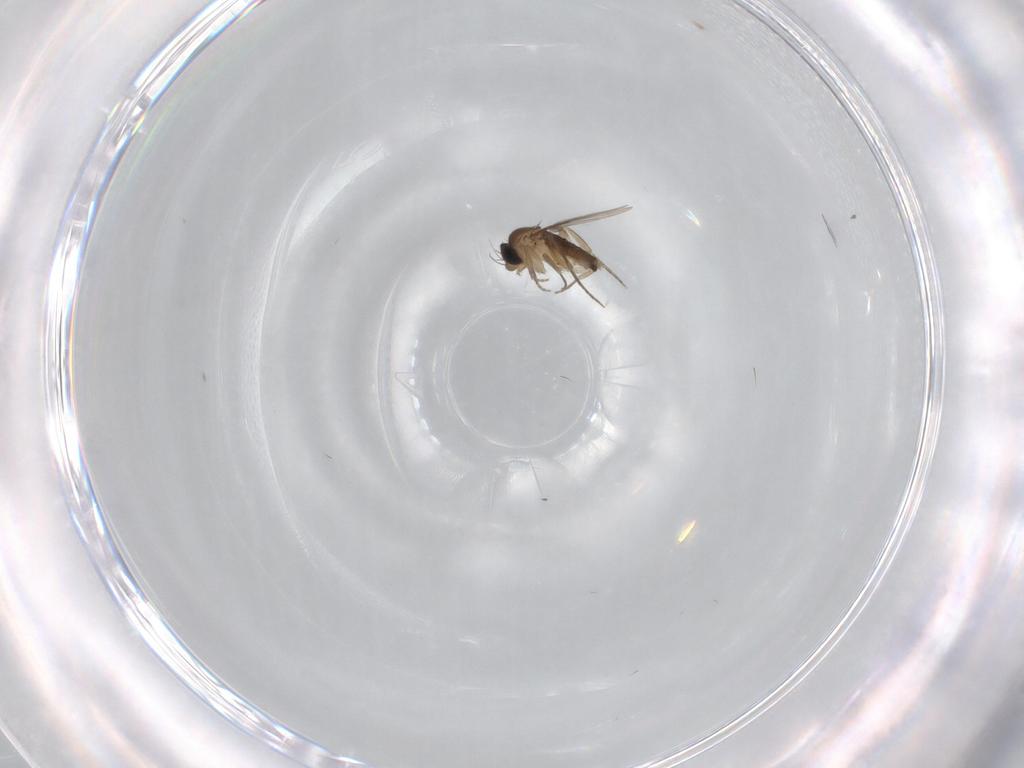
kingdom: Animalia
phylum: Arthropoda
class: Insecta
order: Diptera
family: Phoridae
